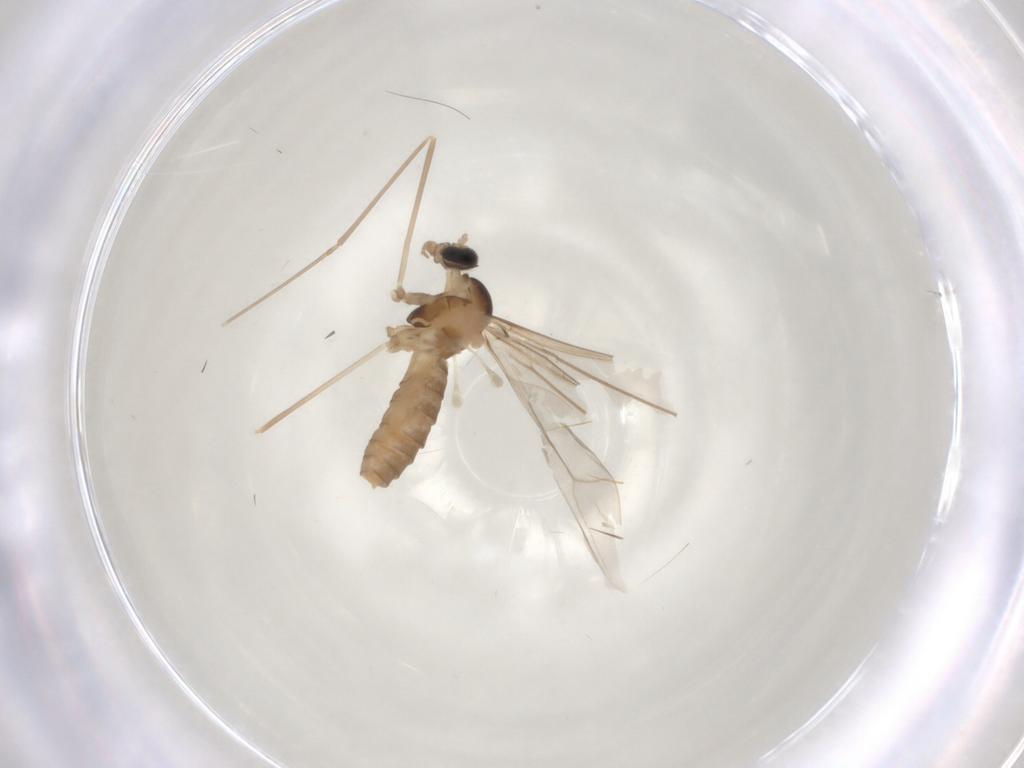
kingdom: Animalia
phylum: Arthropoda
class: Insecta
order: Diptera
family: Cecidomyiidae
